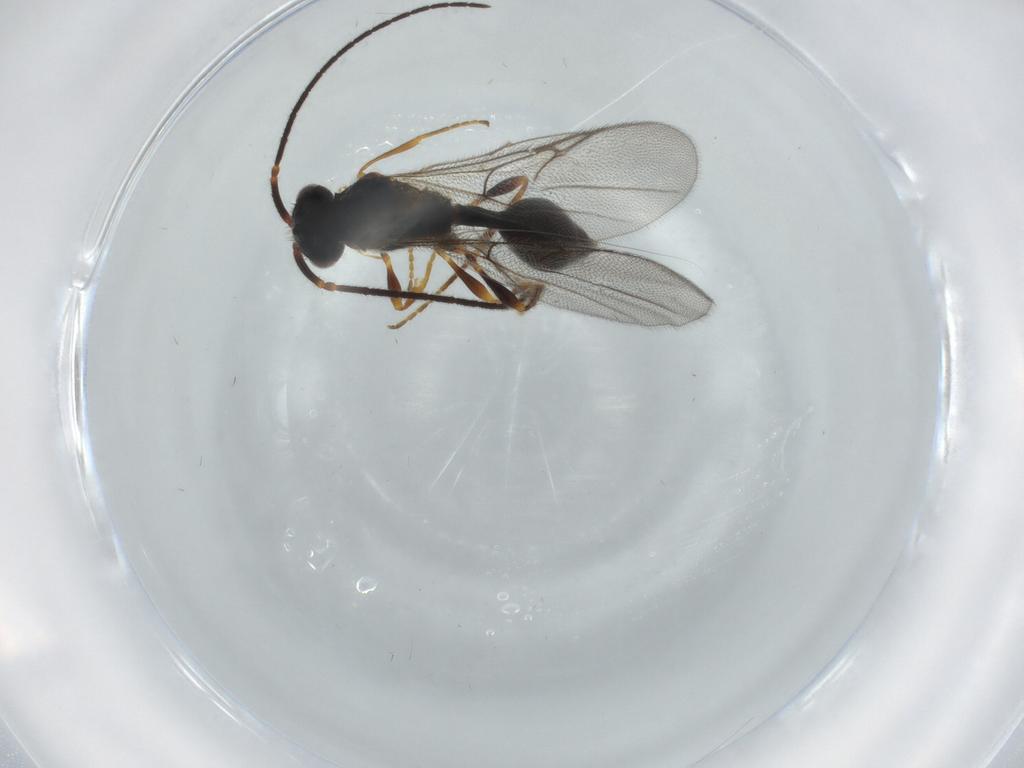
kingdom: Animalia
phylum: Arthropoda
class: Insecta
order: Hymenoptera
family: Diapriidae
